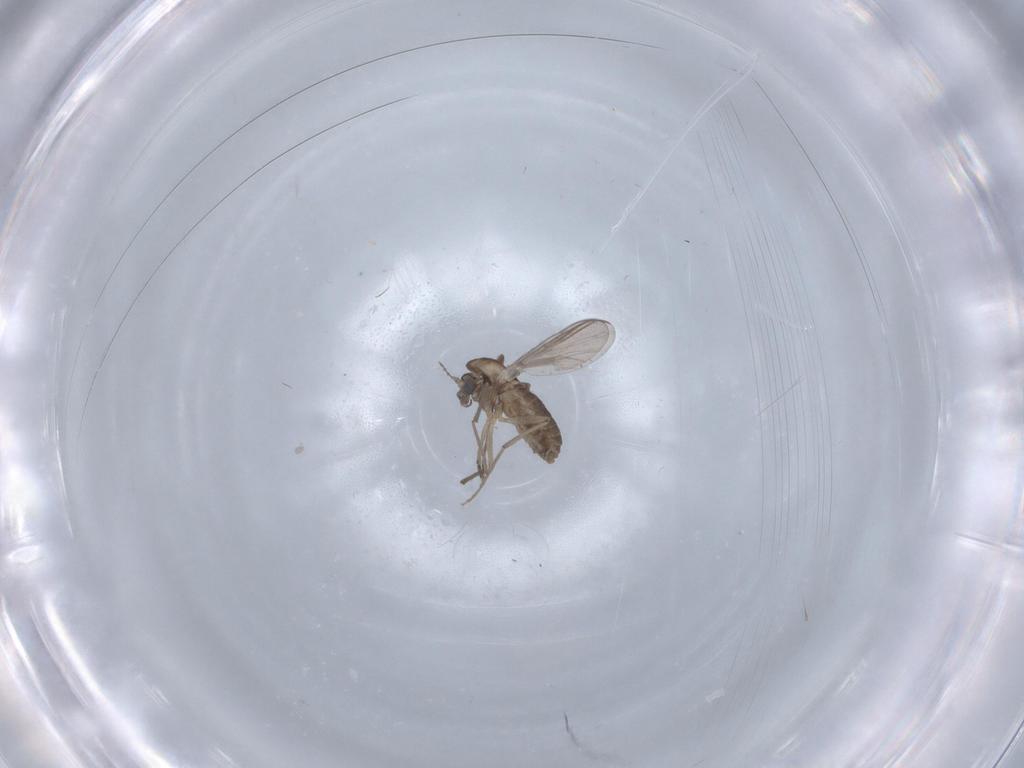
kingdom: Animalia
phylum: Arthropoda
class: Insecta
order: Diptera
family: Chironomidae
